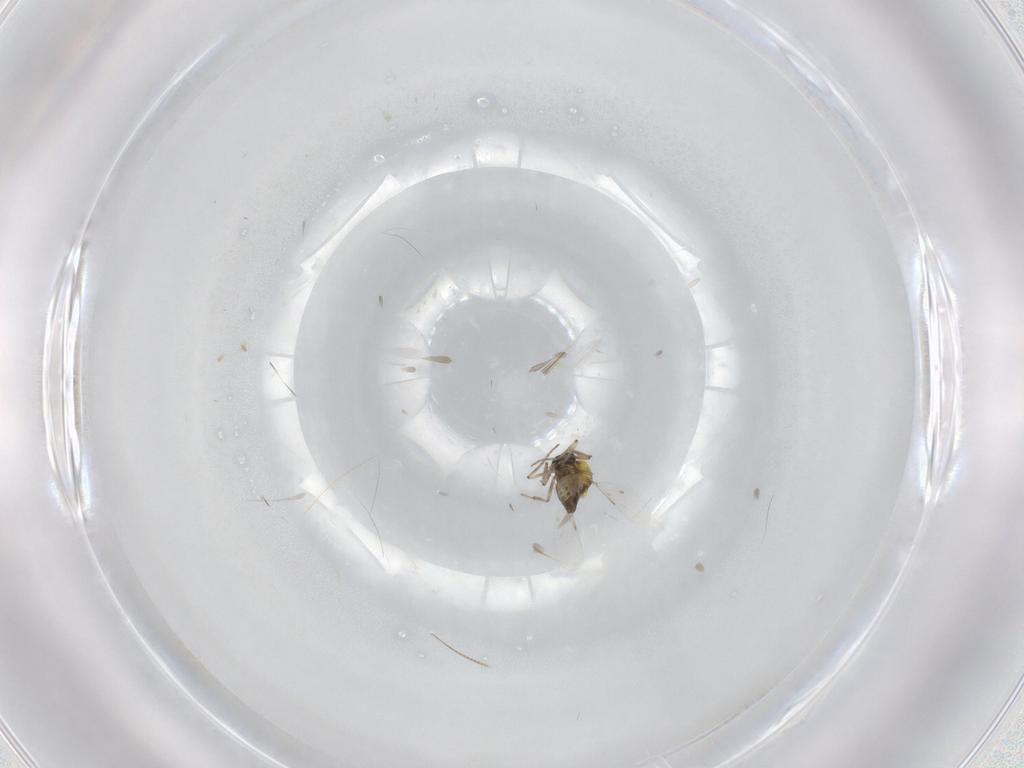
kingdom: Animalia
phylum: Arthropoda
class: Insecta
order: Diptera
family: Ceratopogonidae
